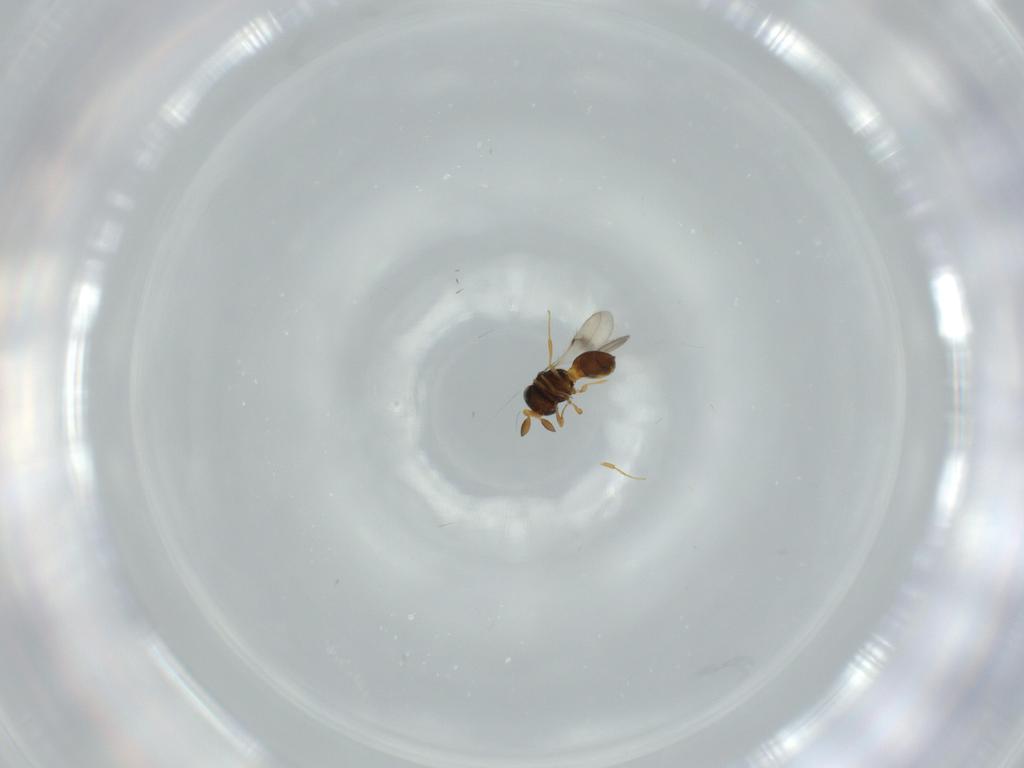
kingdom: Animalia
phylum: Arthropoda
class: Insecta
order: Hymenoptera
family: Scelionidae
